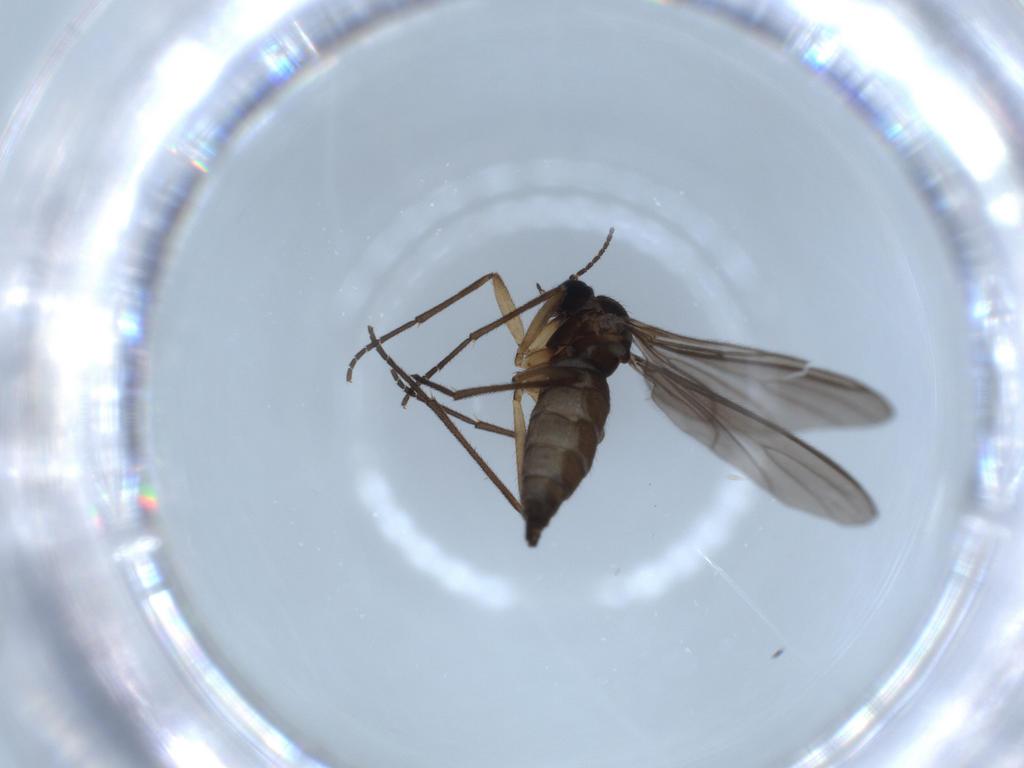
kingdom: Animalia
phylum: Arthropoda
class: Insecta
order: Diptera
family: Sciaridae
